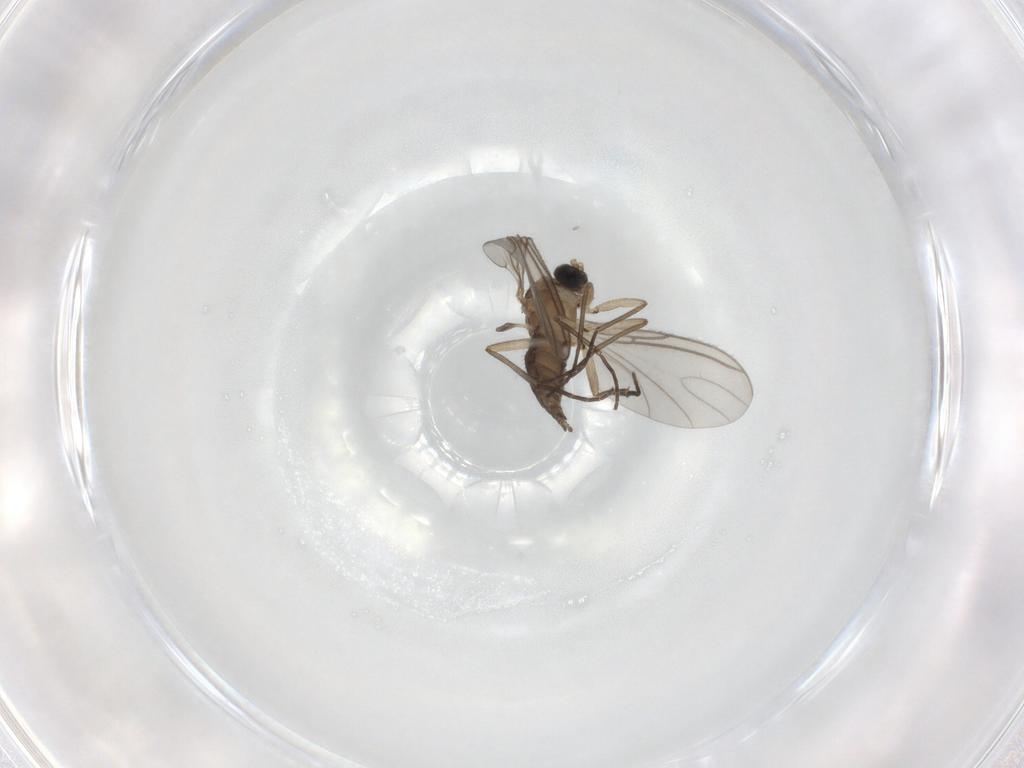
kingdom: Animalia
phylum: Arthropoda
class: Insecta
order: Diptera
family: Sciaridae
